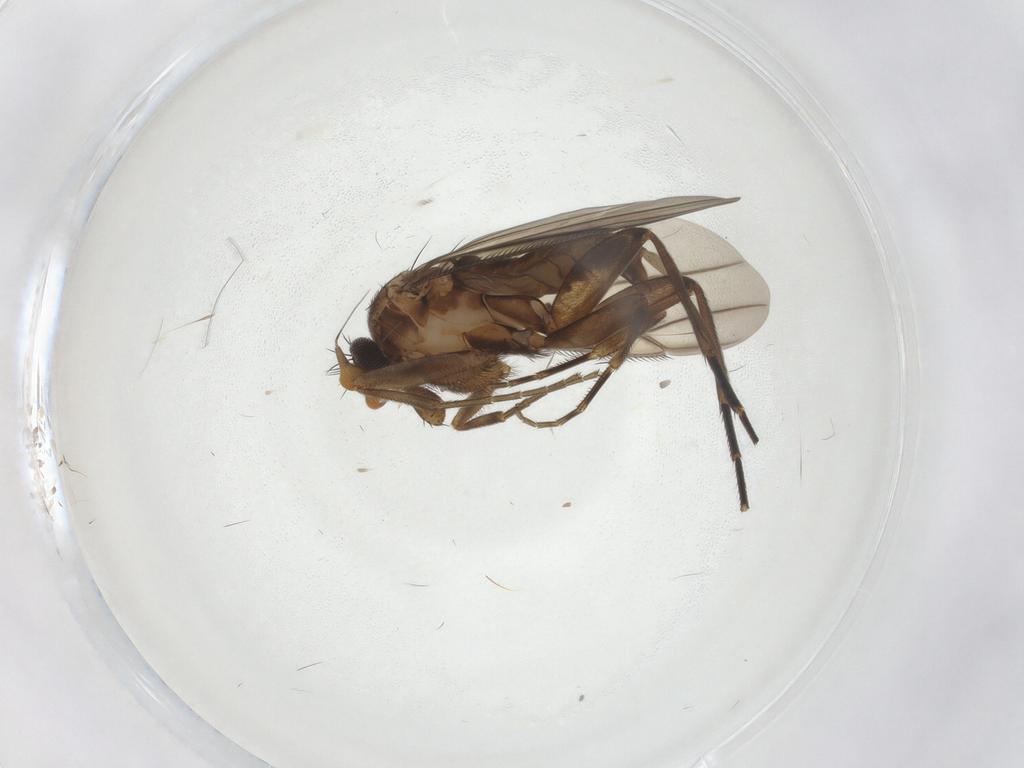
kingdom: Animalia
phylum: Arthropoda
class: Insecta
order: Diptera
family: Phoridae
